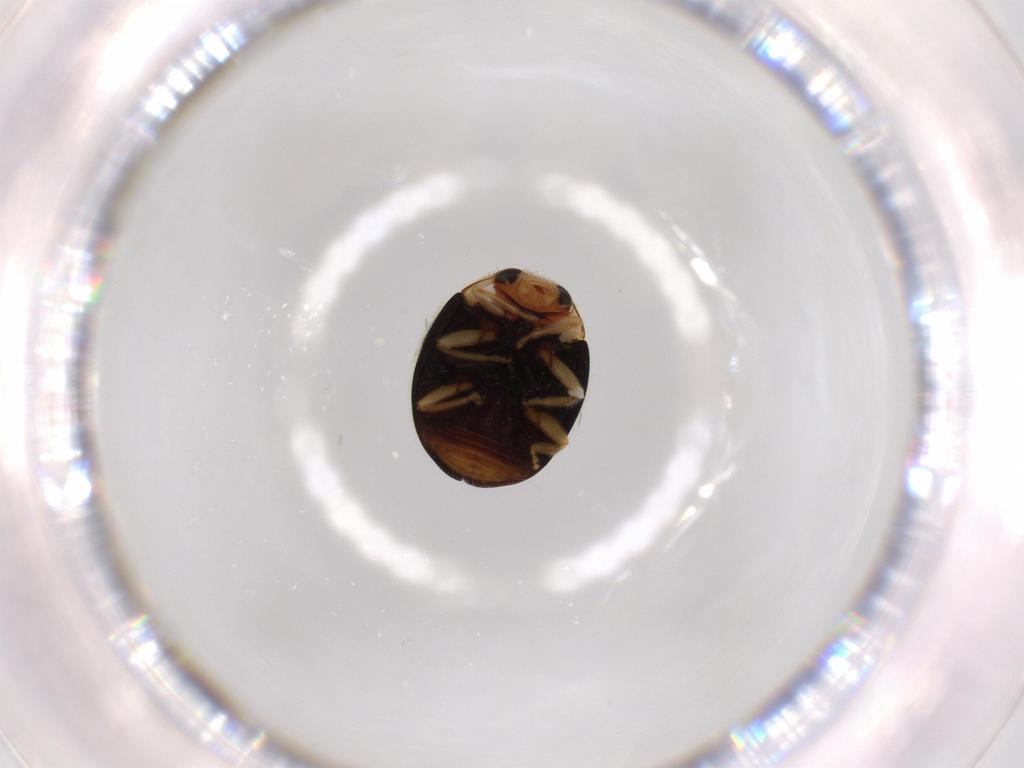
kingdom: Animalia
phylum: Arthropoda
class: Insecta
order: Coleoptera
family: Coccinellidae
